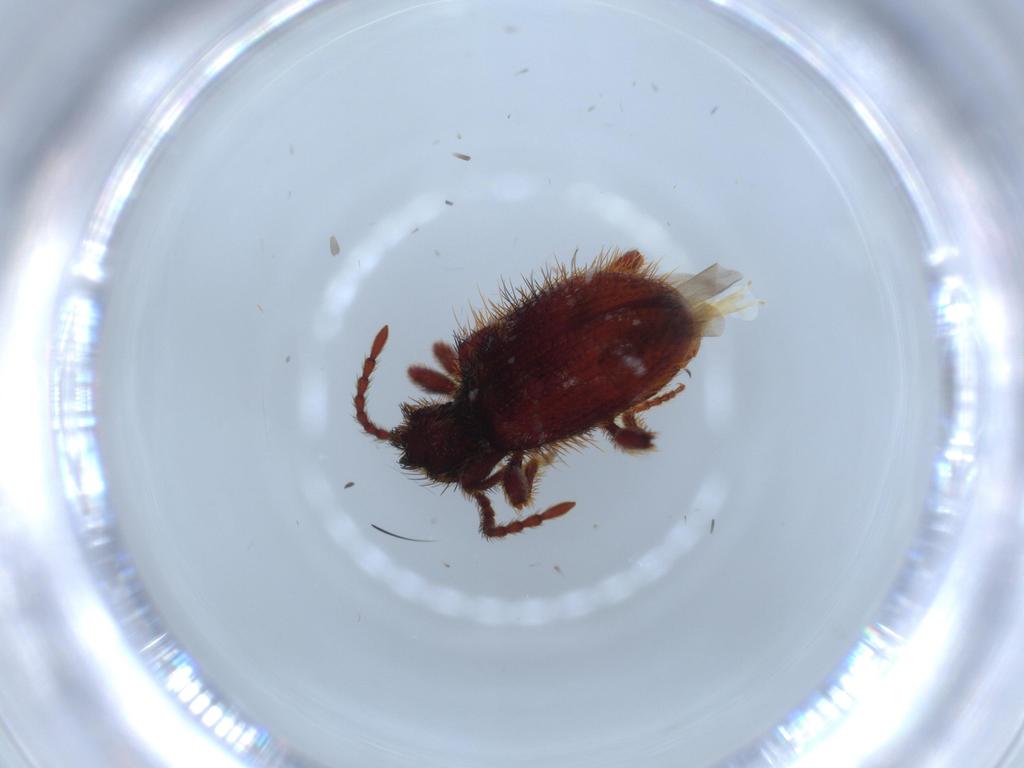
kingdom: Animalia
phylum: Arthropoda
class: Insecta
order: Coleoptera
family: Ptinidae
